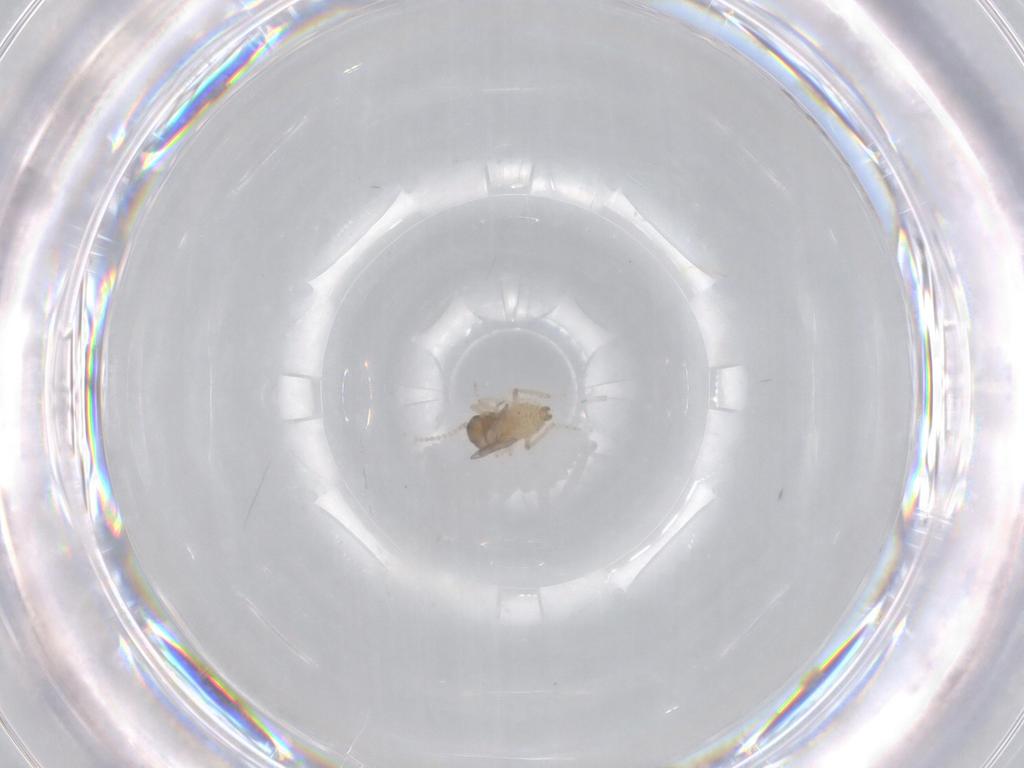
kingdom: Animalia
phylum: Arthropoda
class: Insecta
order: Diptera
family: Cecidomyiidae
